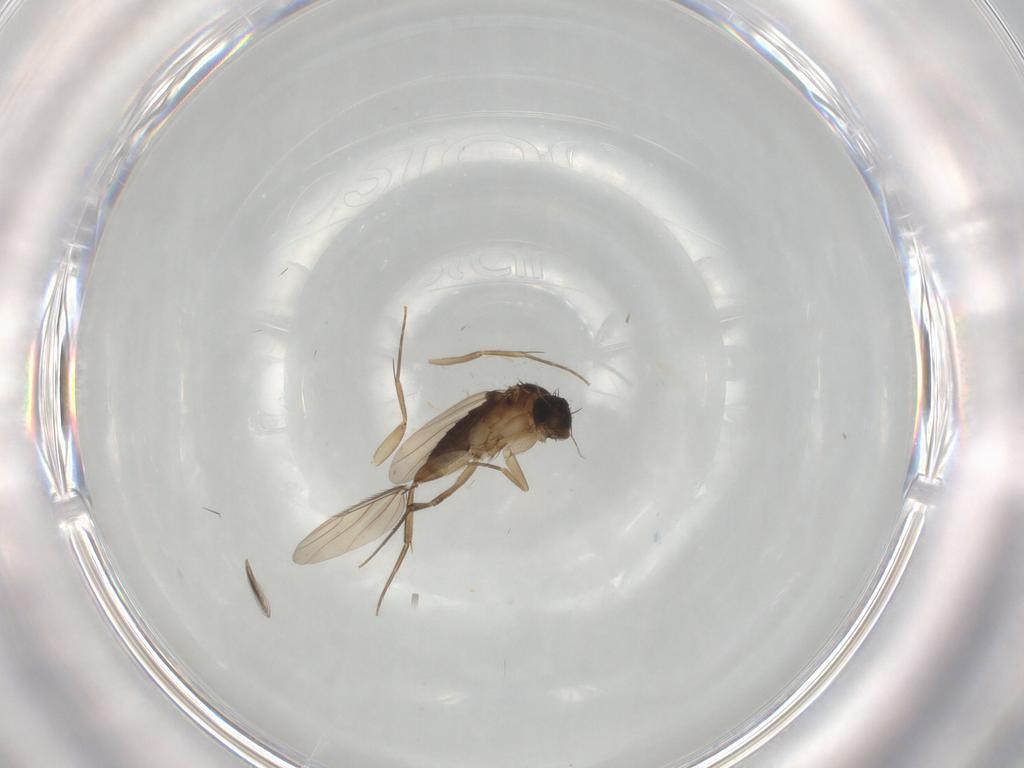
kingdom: Animalia
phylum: Arthropoda
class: Insecta
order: Diptera
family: Phoridae
